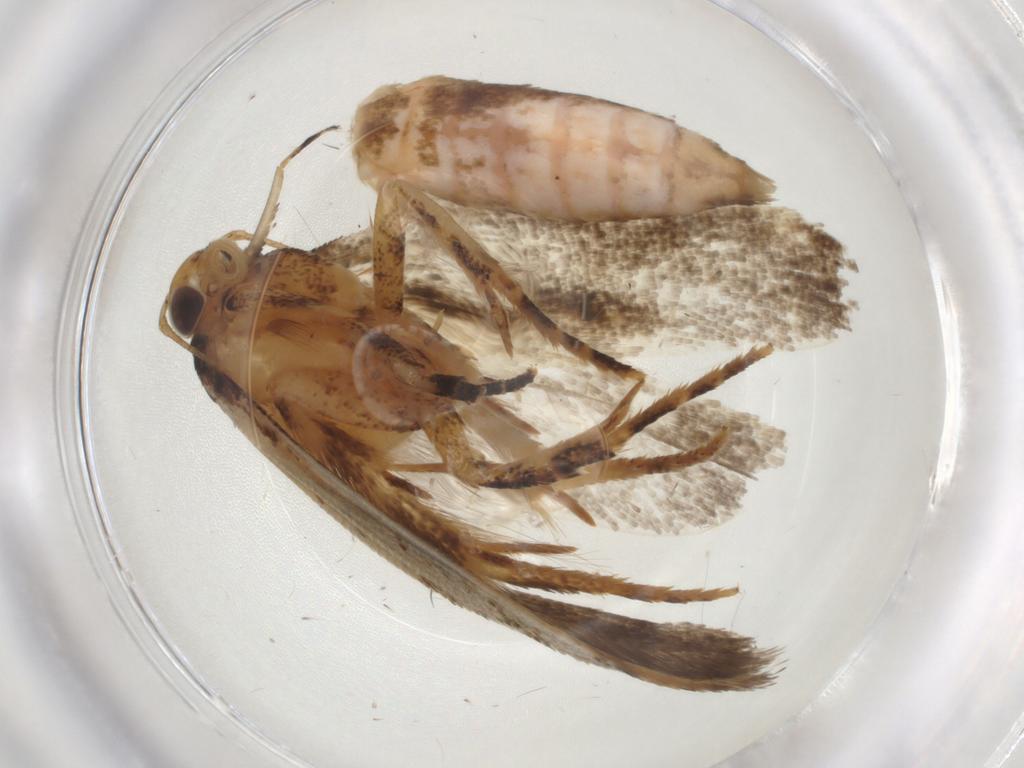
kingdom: Animalia
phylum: Arthropoda
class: Insecta
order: Lepidoptera
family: Gelechiidae
